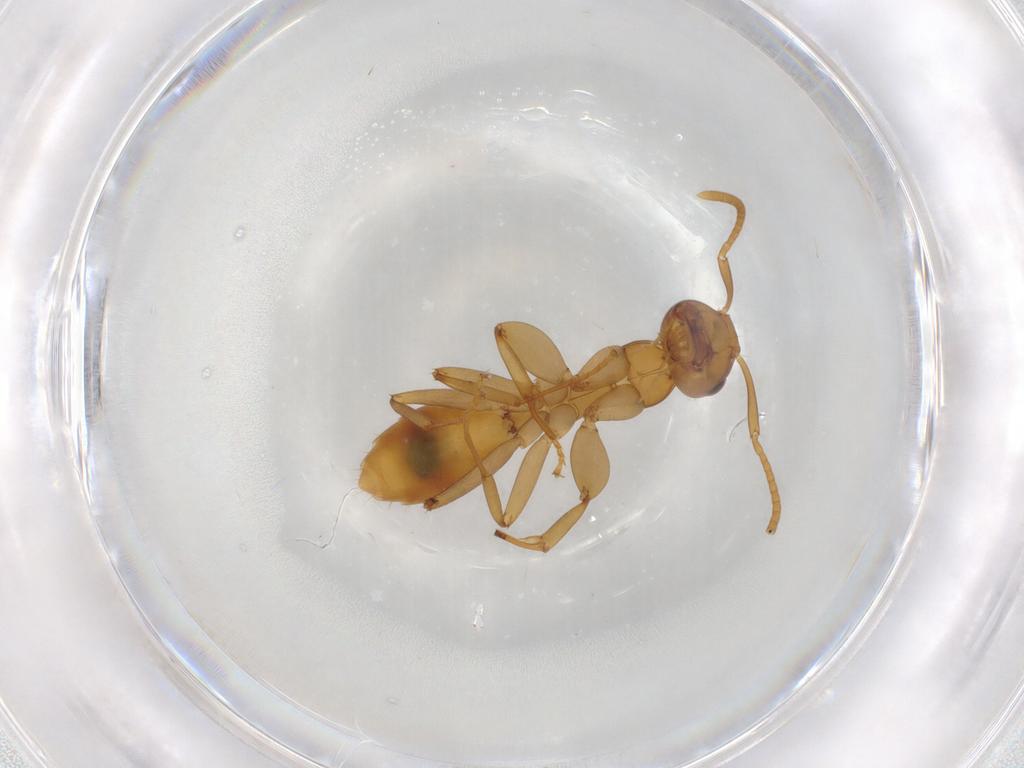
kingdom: Animalia
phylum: Arthropoda
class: Insecta
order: Hymenoptera
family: Formicidae
